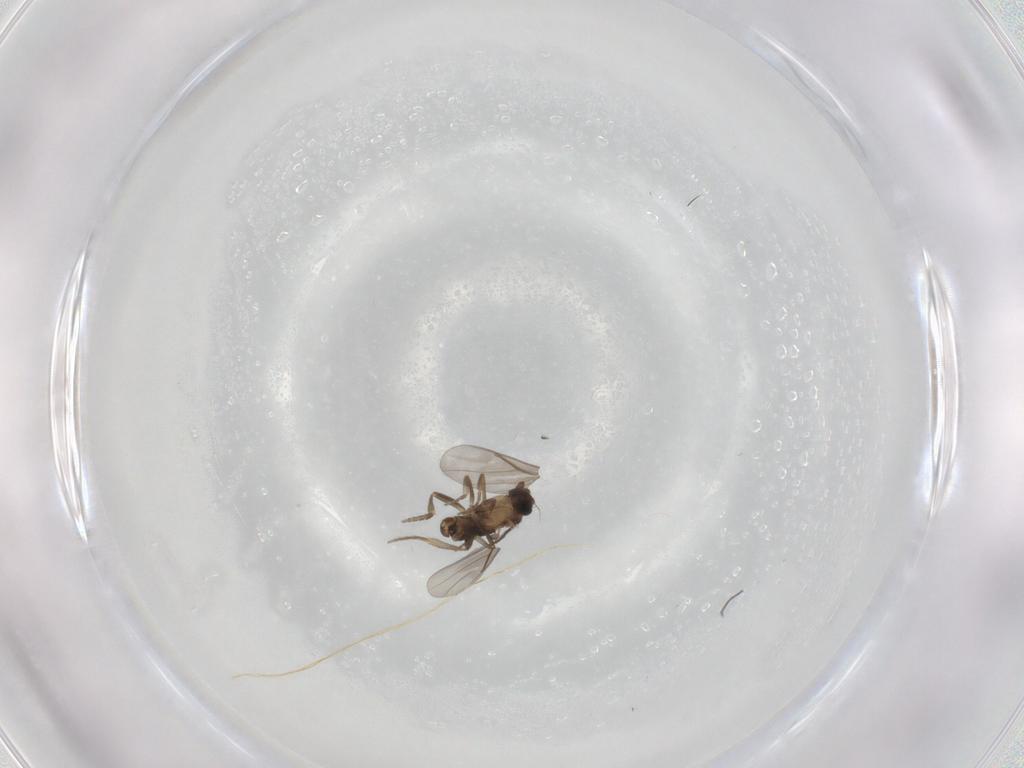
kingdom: Animalia
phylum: Arthropoda
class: Insecta
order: Diptera
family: Chironomidae
